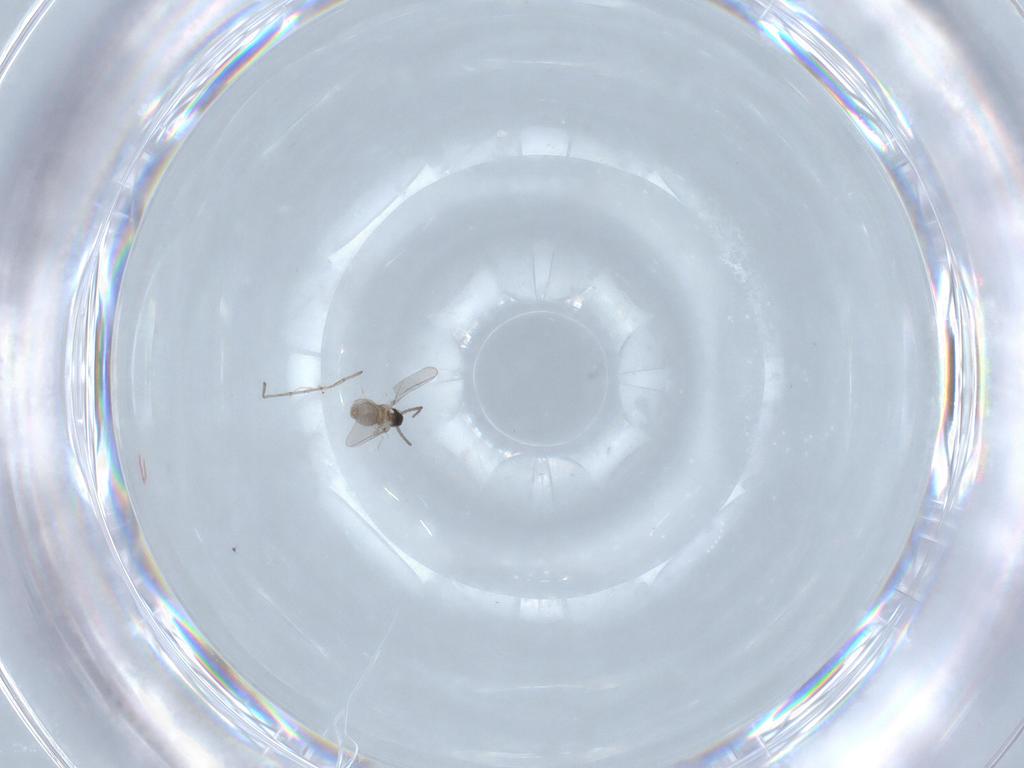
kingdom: Animalia
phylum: Arthropoda
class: Insecta
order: Diptera
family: Cecidomyiidae
